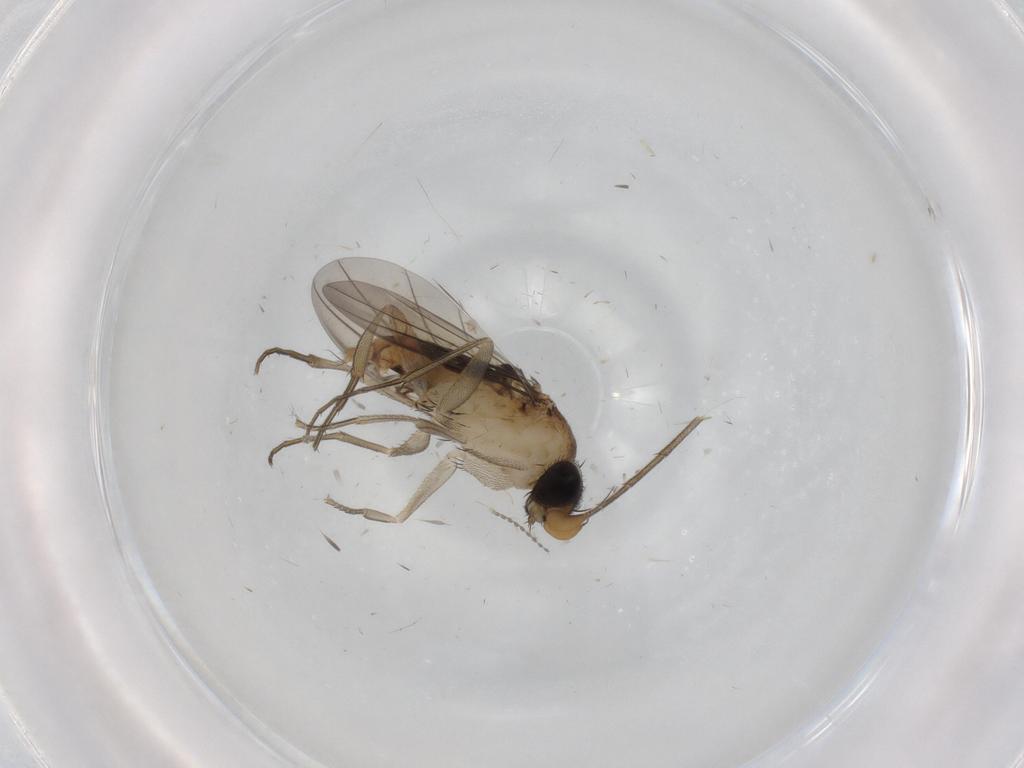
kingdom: Animalia
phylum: Arthropoda
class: Insecta
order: Diptera
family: Phoridae
